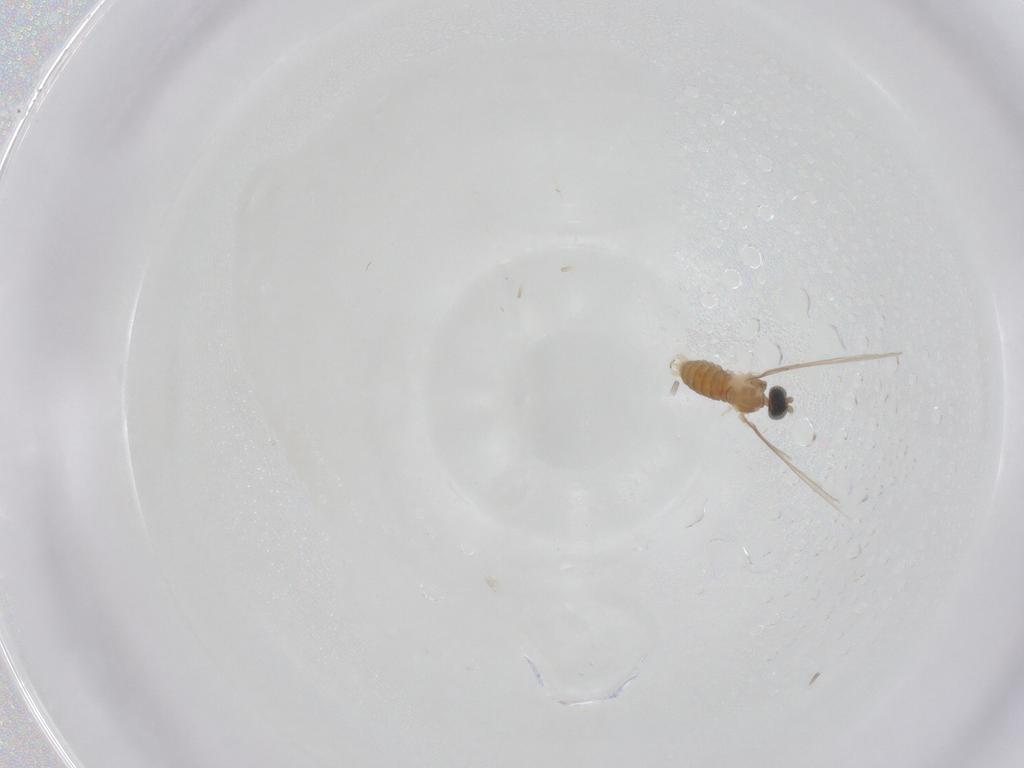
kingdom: Animalia
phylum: Arthropoda
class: Insecta
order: Diptera
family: Cecidomyiidae
